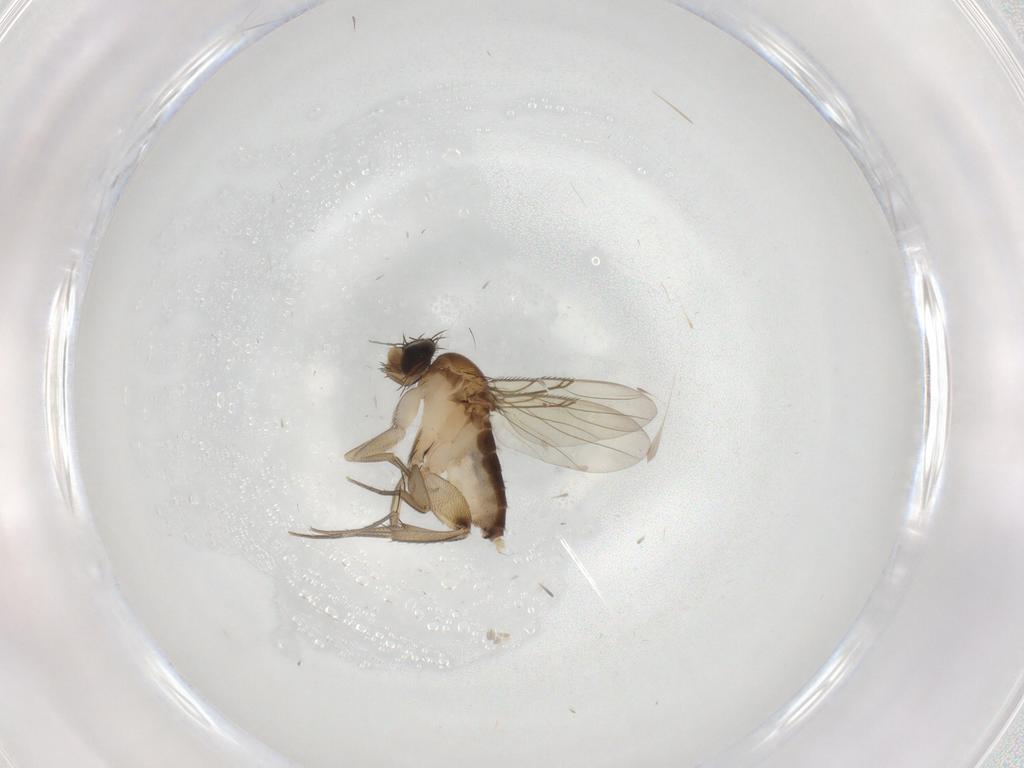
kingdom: Animalia
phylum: Arthropoda
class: Insecta
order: Diptera
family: Phoridae
